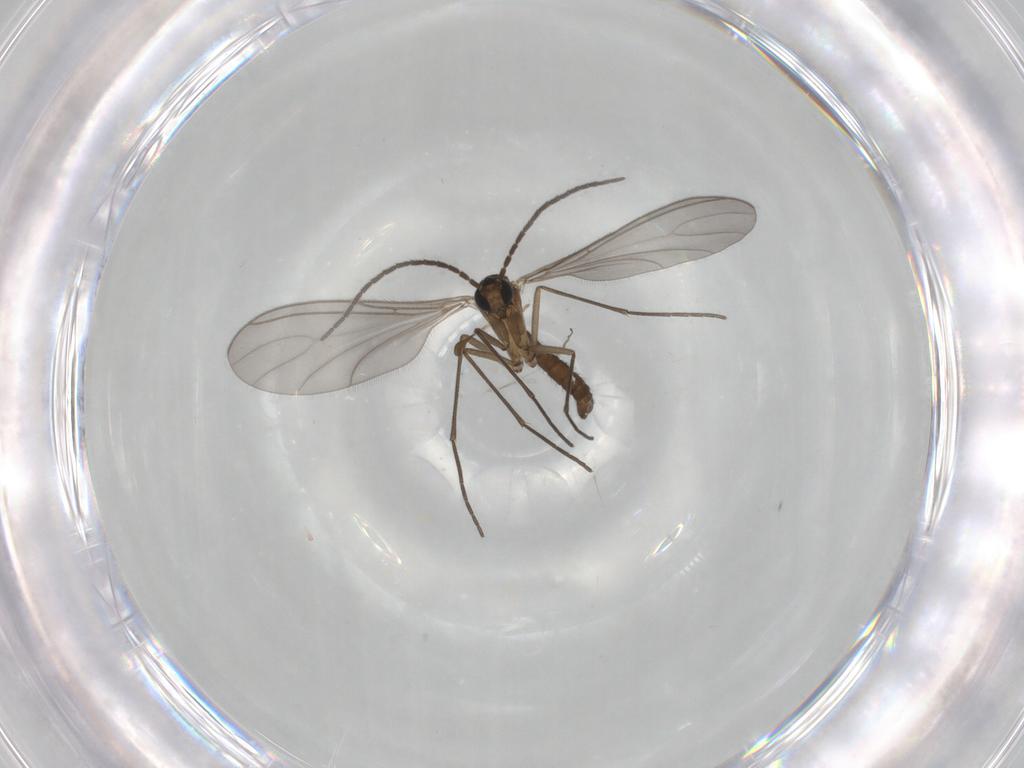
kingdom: Animalia
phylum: Arthropoda
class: Insecta
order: Diptera
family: Sciaridae
